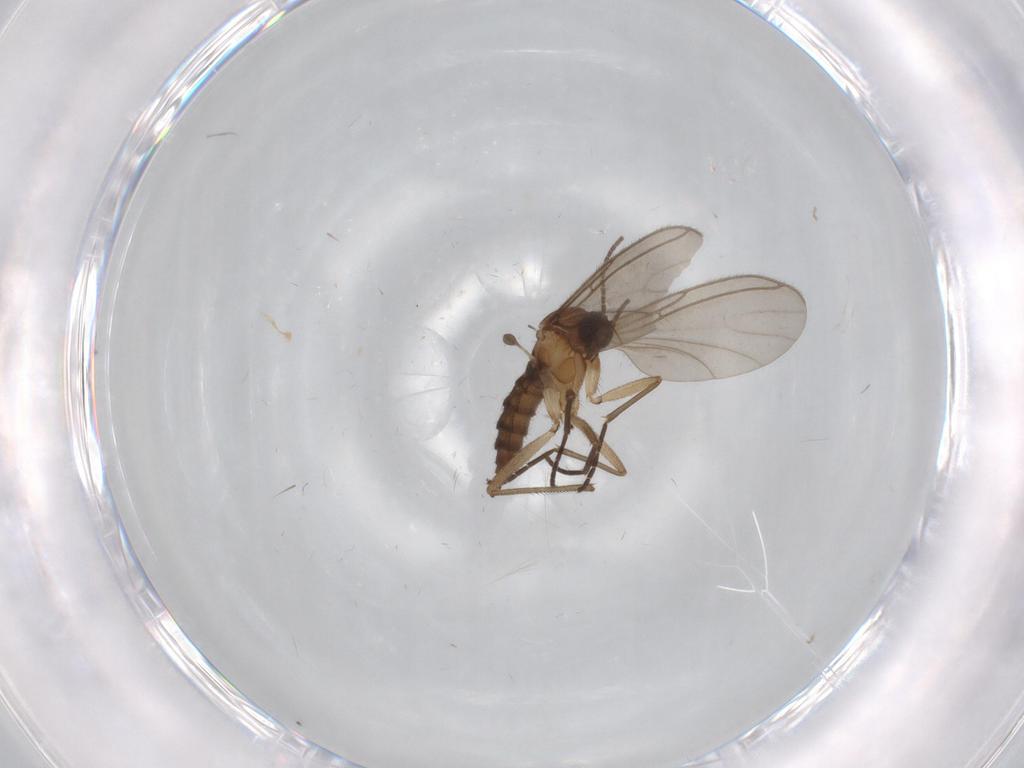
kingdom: Animalia
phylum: Arthropoda
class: Insecta
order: Diptera
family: Sciaridae
